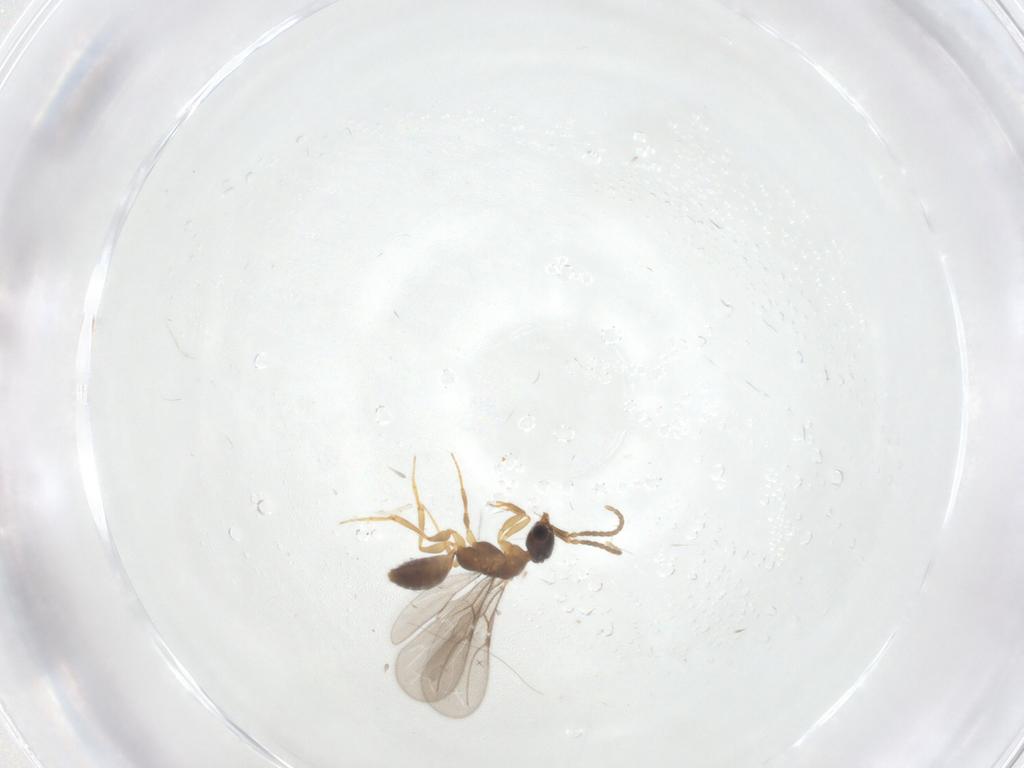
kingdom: Animalia
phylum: Arthropoda
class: Insecta
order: Hymenoptera
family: Bethylidae
